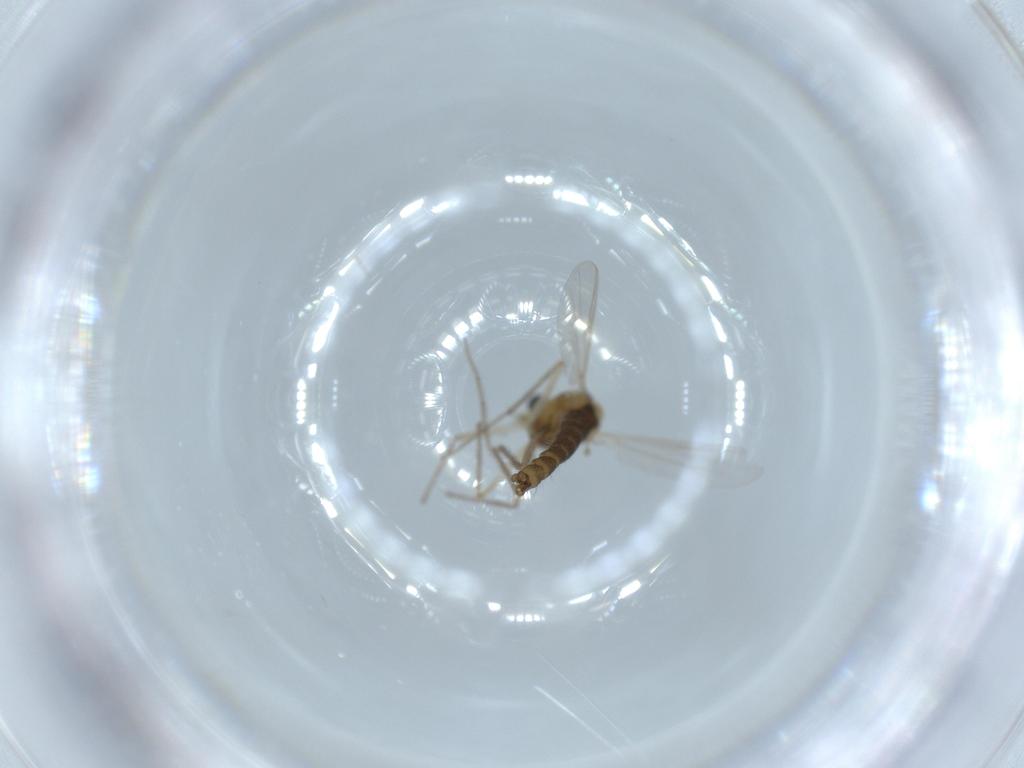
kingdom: Animalia
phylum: Arthropoda
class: Insecta
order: Diptera
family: Chironomidae
